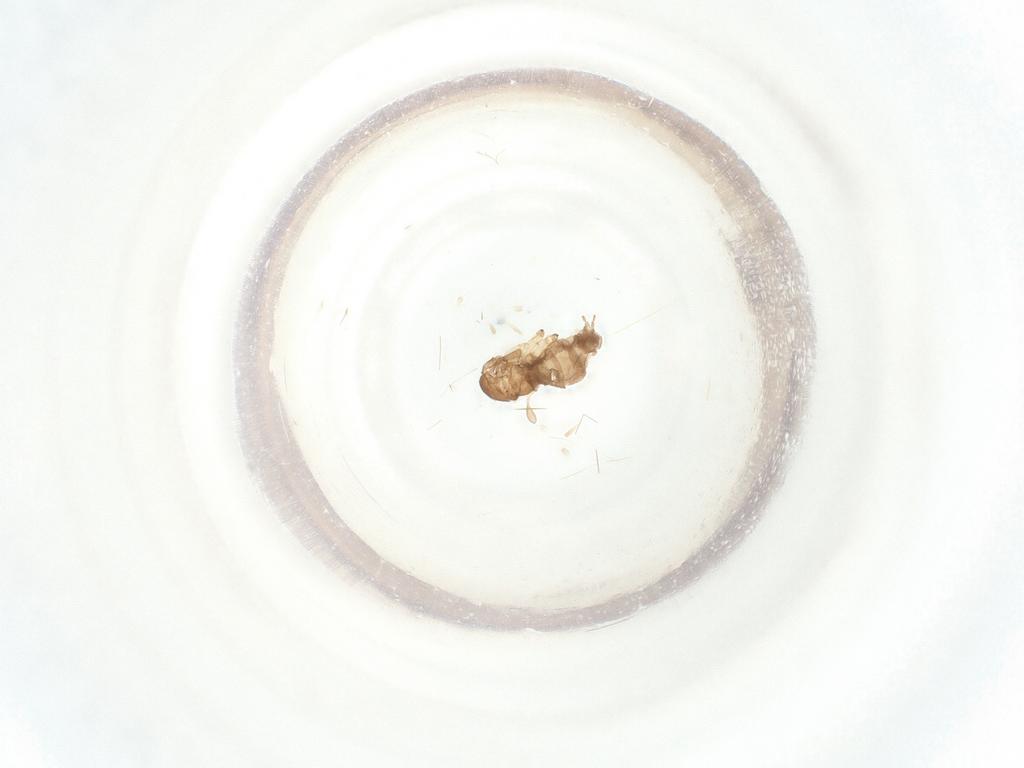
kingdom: Animalia
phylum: Arthropoda
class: Insecta
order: Diptera
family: Sciaridae
